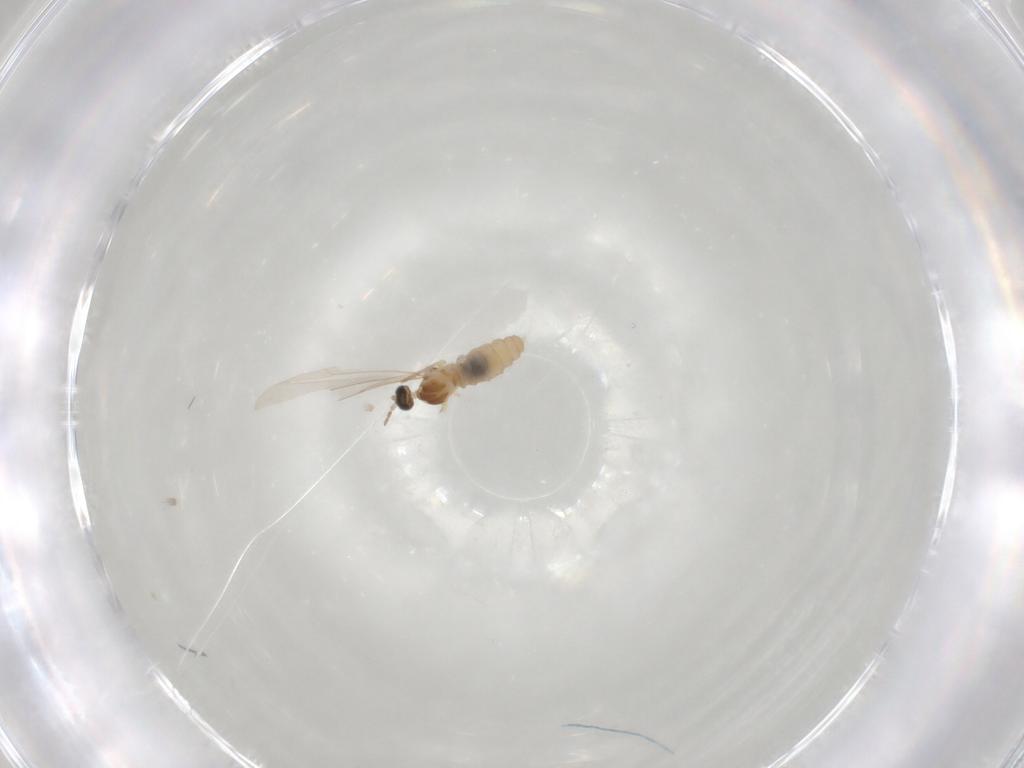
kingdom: Animalia
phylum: Arthropoda
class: Insecta
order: Diptera
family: Cecidomyiidae
